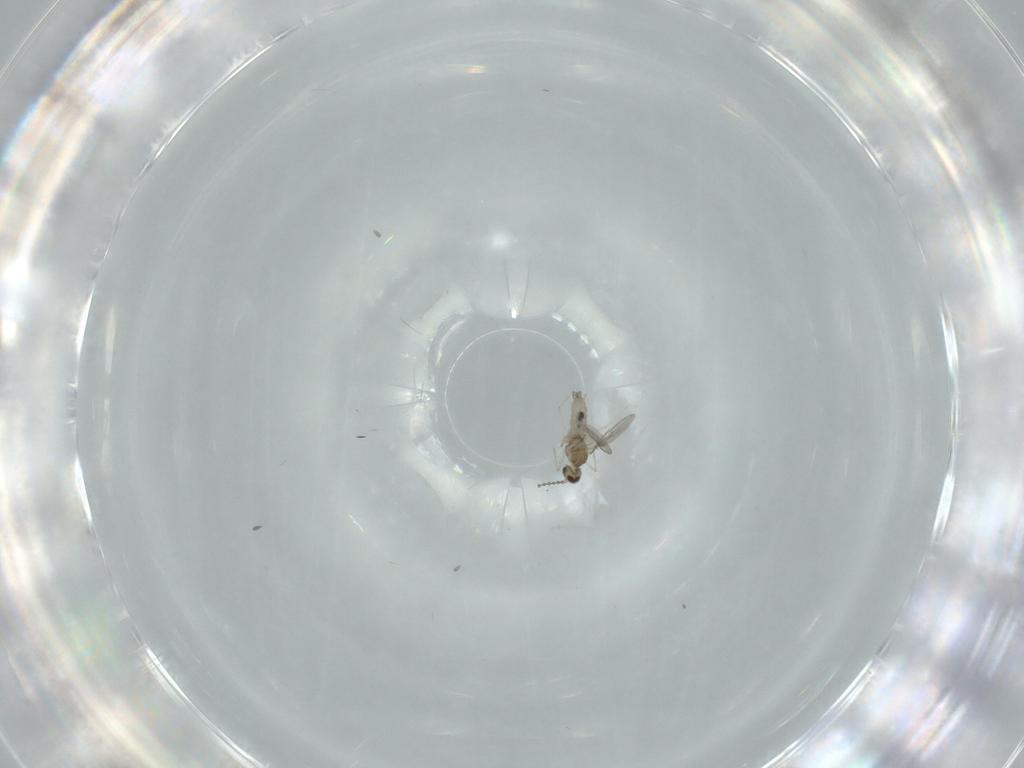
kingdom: Animalia
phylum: Arthropoda
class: Insecta
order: Diptera
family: Cecidomyiidae
